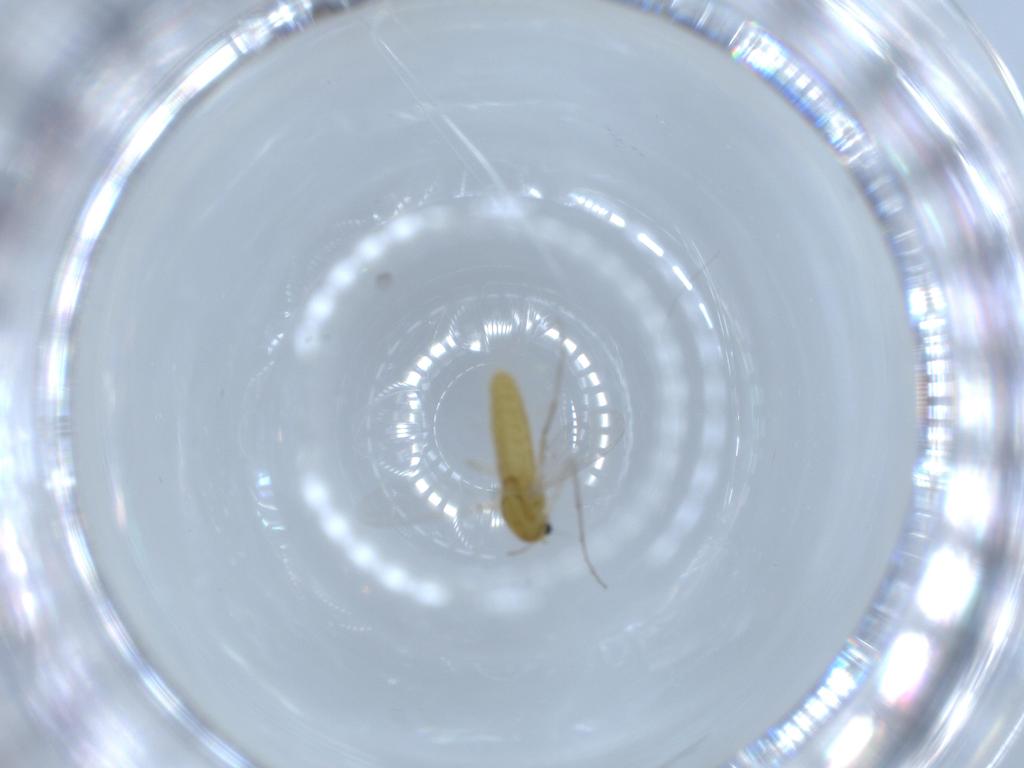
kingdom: Animalia
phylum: Arthropoda
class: Insecta
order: Diptera
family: Chironomidae
